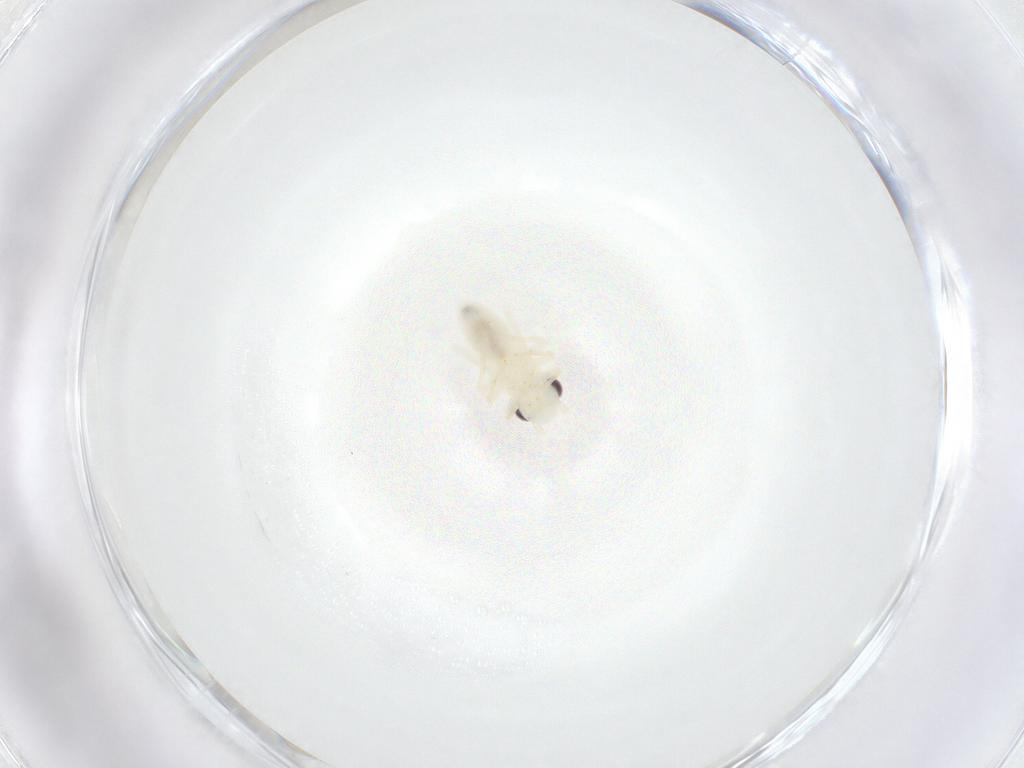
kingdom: Animalia
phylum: Arthropoda
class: Insecta
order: Psocodea
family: Caeciliusidae
